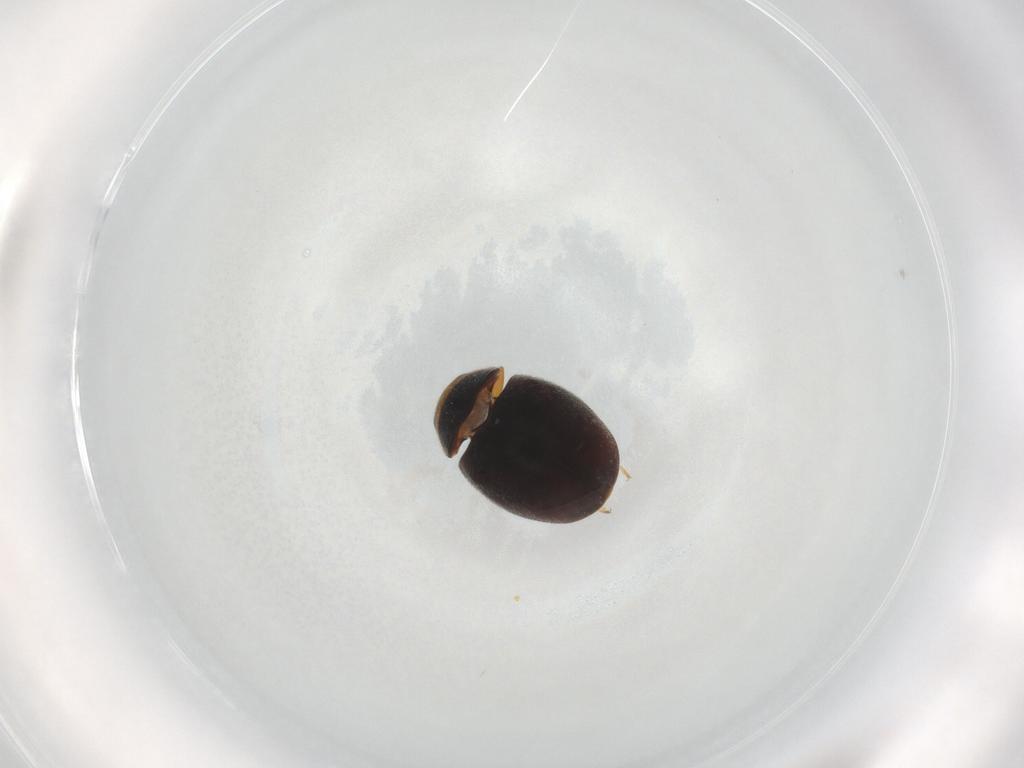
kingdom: Animalia
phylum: Arthropoda
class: Insecta
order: Coleoptera
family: Coccinellidae
